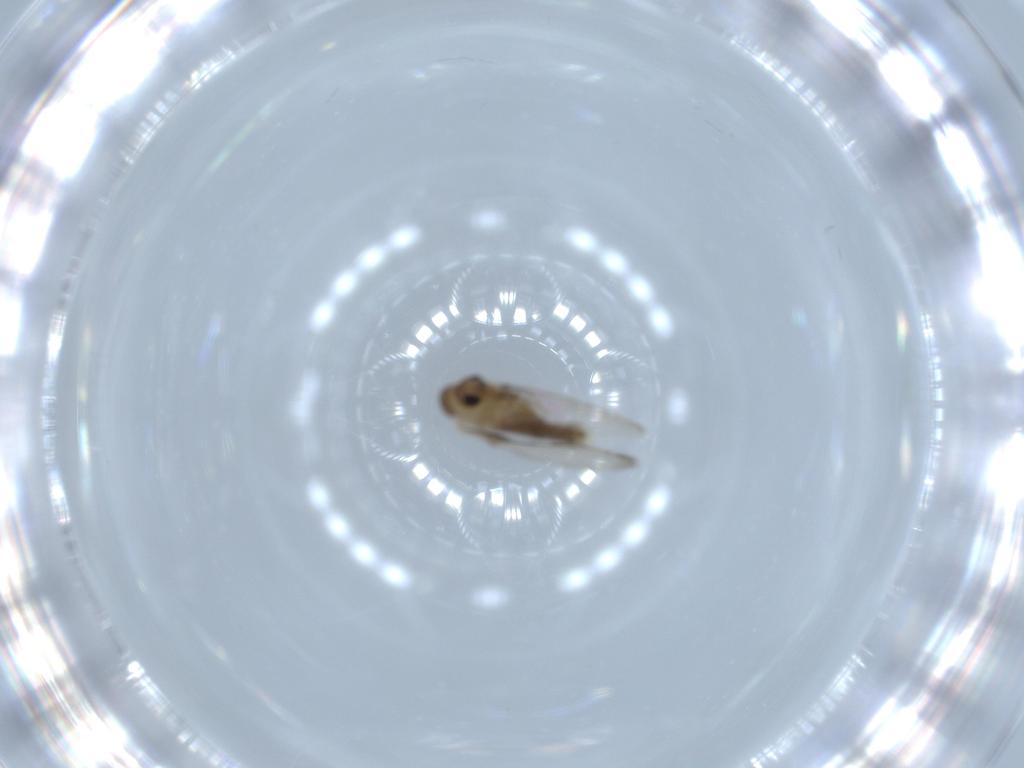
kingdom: Animalia
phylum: Arthropoda
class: Insecta
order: Diptera
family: Psychodidae
